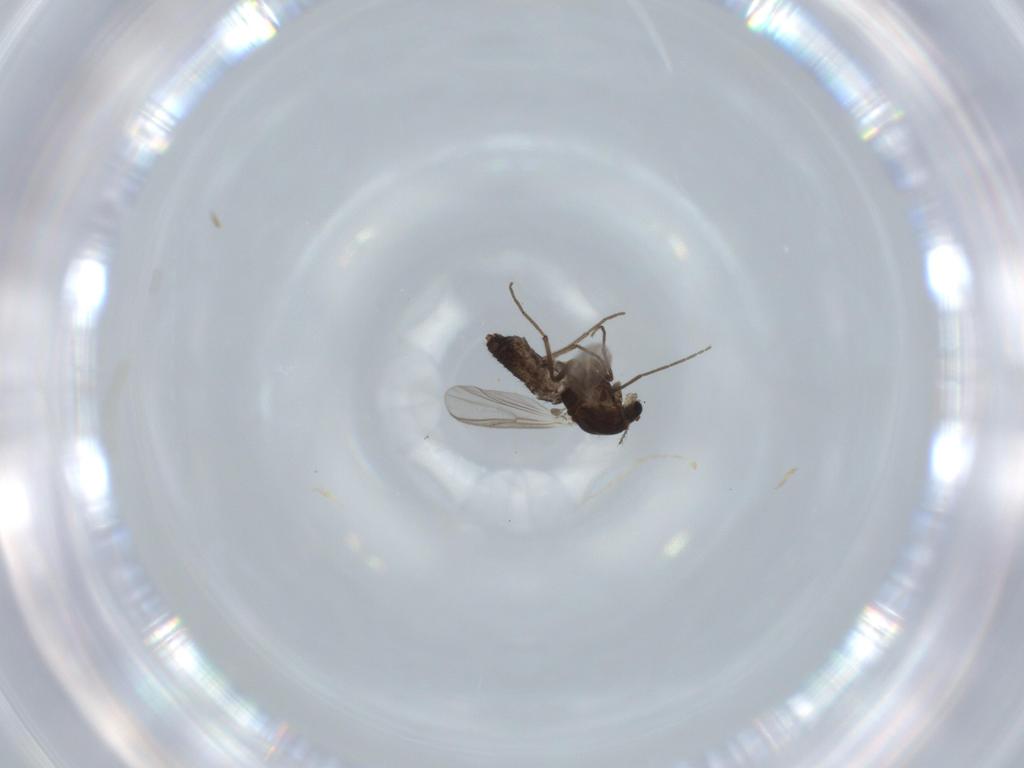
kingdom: Animalia
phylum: Arthropoda
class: Insecta
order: Diptera
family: Chironomidae
